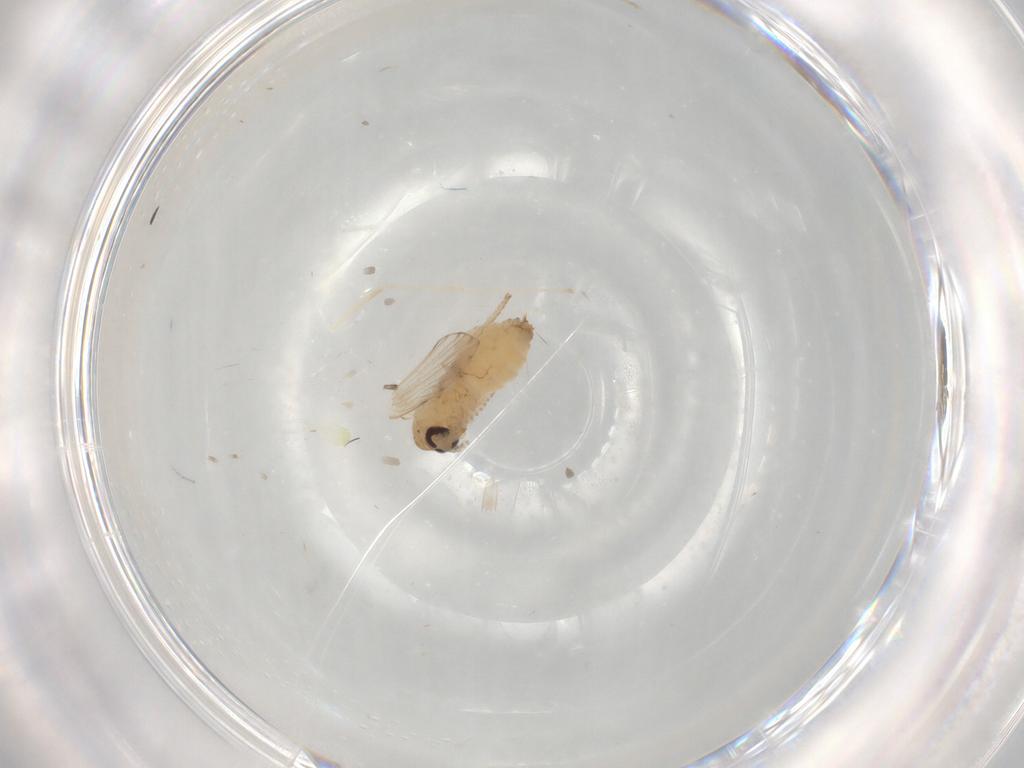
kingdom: Animalia
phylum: Arthropoda
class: Insecta
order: Diptera
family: Psychodidae
